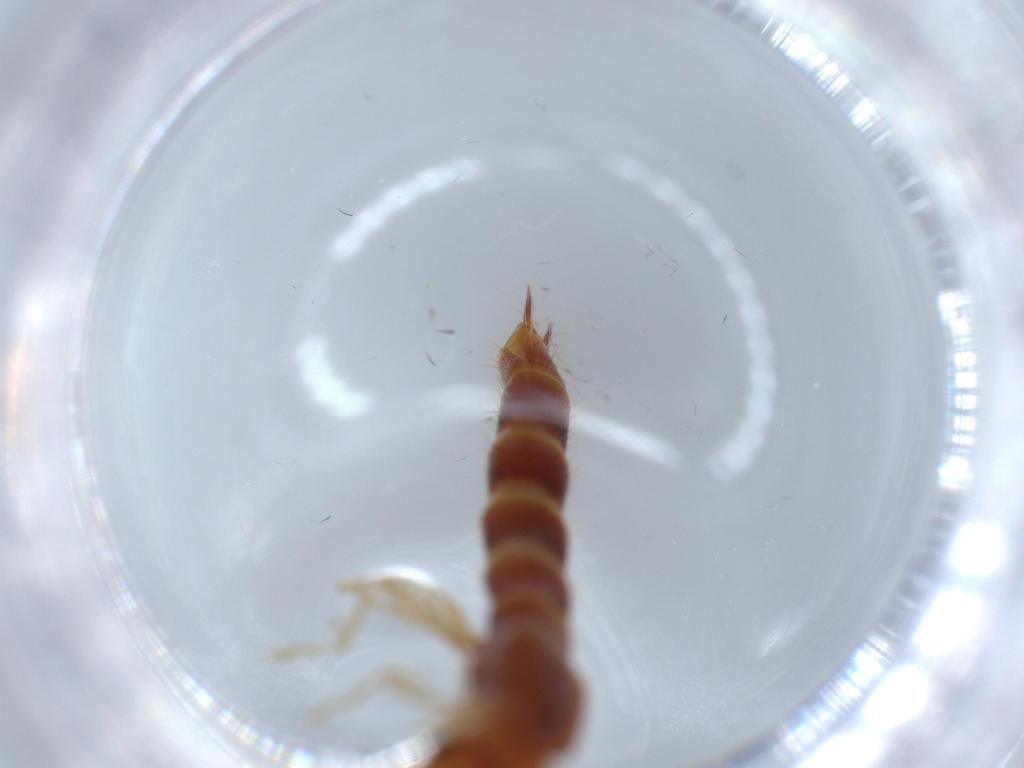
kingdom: Animalia
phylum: Arthropoda
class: Insecta
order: Coleoptera
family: Staphylinidae
